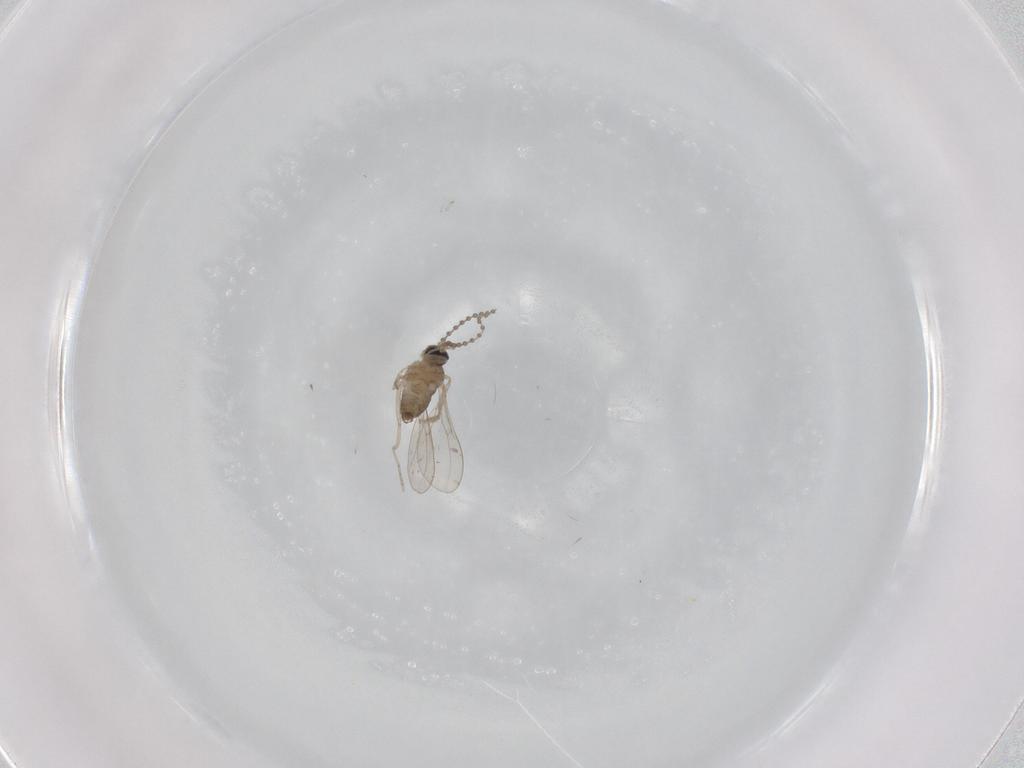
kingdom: Animalia
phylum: Arthropoda
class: Insecta
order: Diptera
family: Cecidomyiidae
